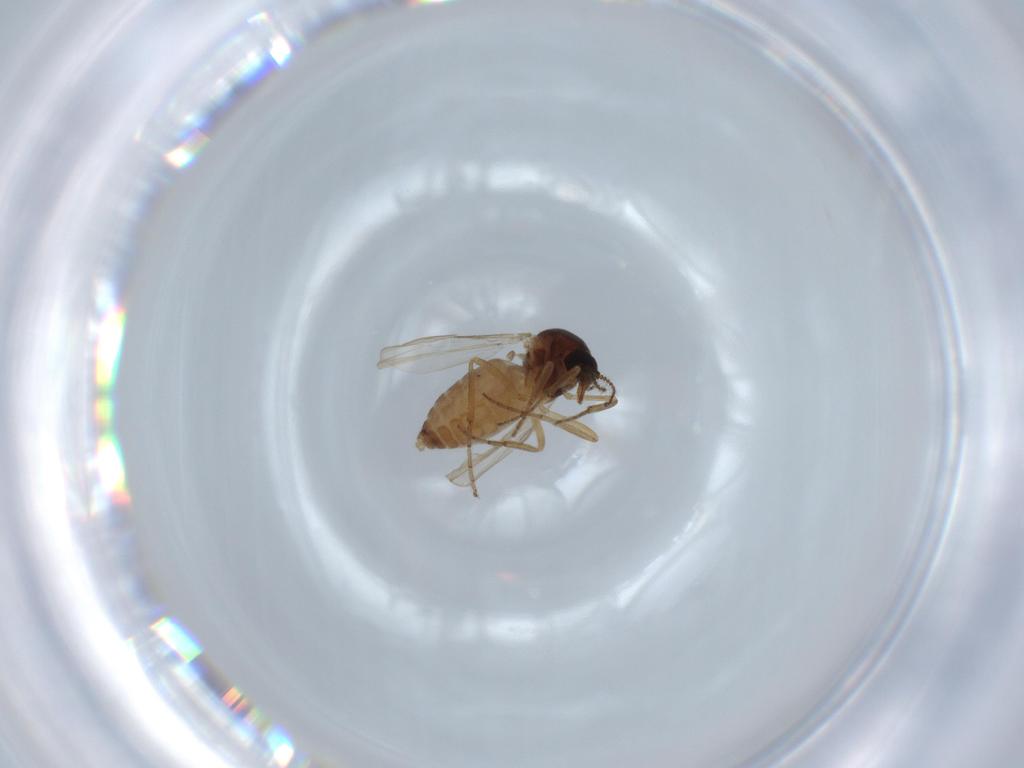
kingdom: Animalia
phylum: Arthropoda
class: Insecta
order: Diptera
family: Ceratopogonidae
